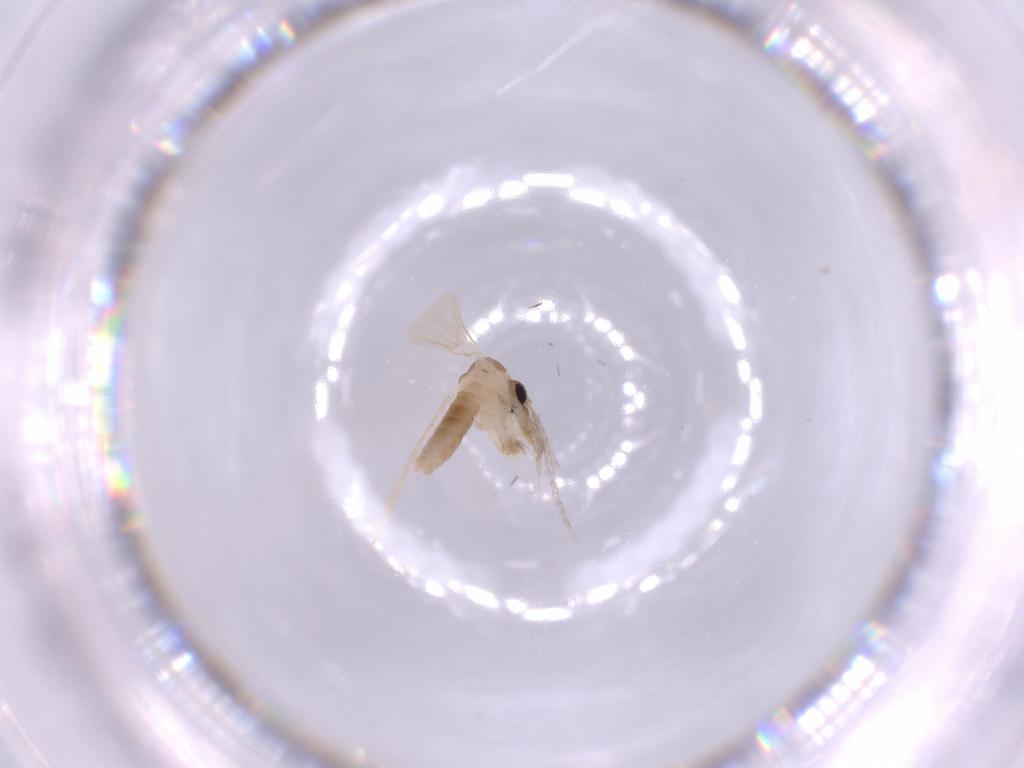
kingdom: Animalia
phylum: Arthropoda
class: Insecta
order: Diptera
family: Psychodidae
